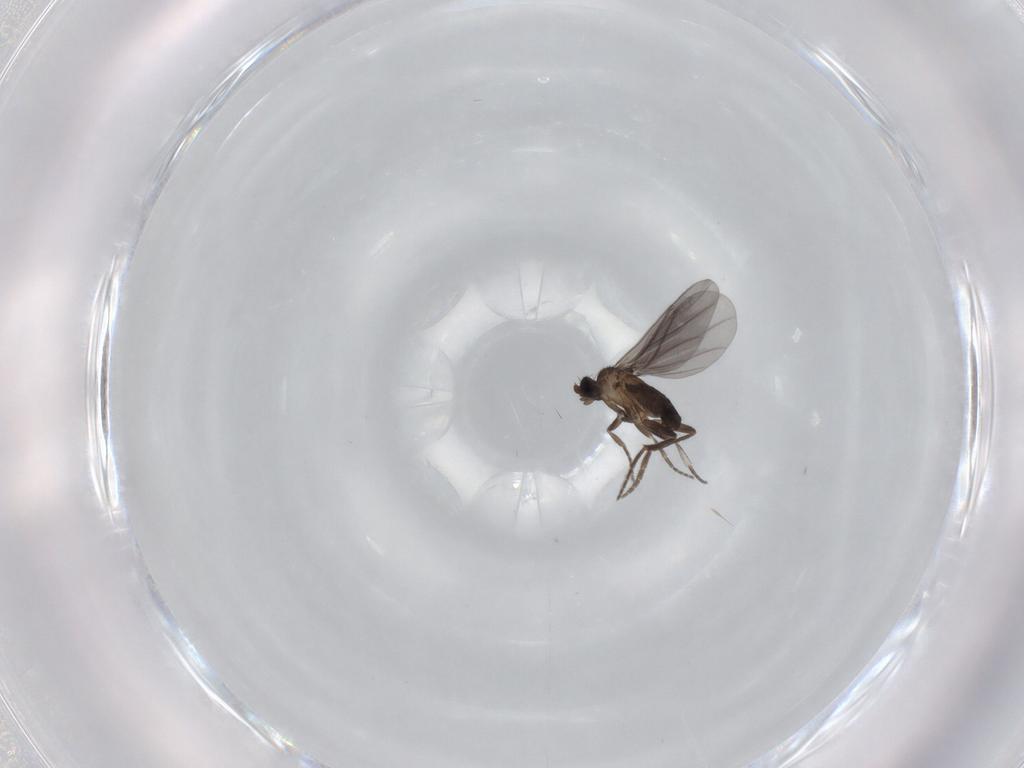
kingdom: Animalia
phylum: Arthropoda
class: Insecta
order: Diptera
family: Phoridae
